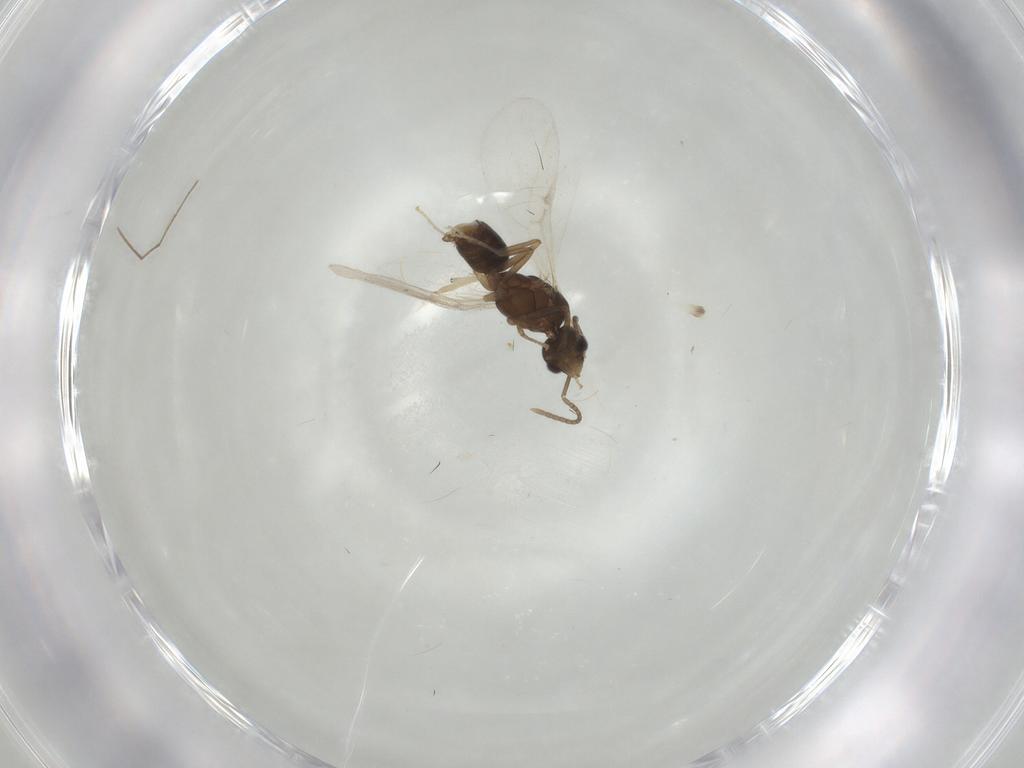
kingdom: Animalia
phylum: Arthropoda
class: Insecta
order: Hymenoptera
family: Formicidae
